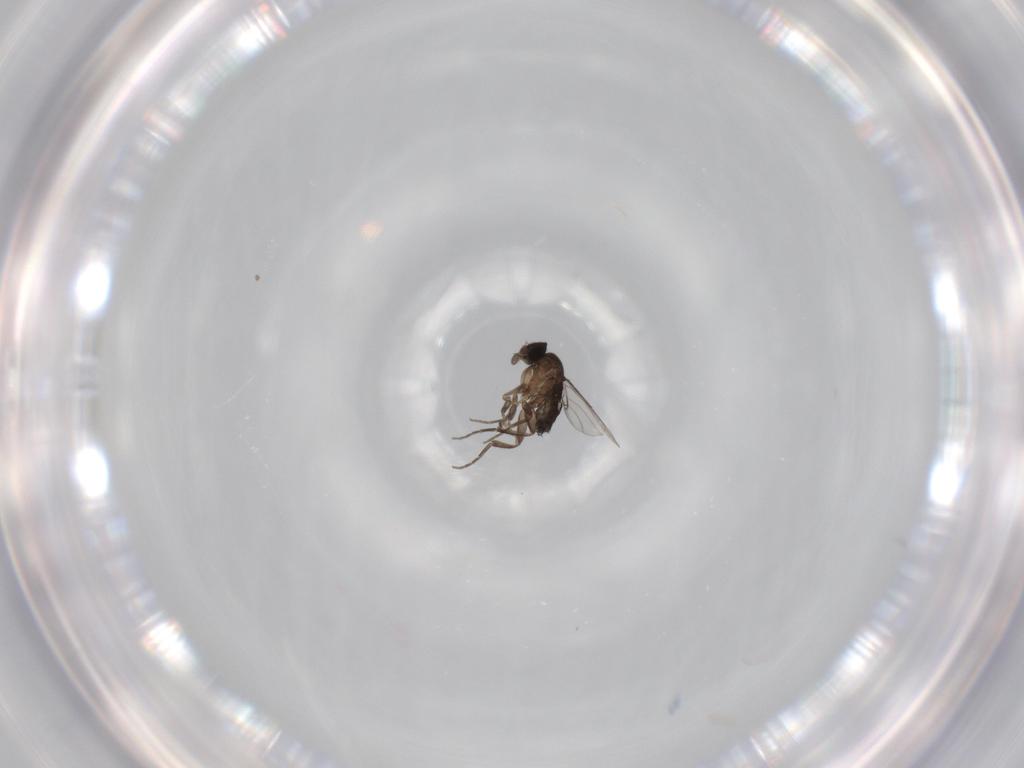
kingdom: Animalia
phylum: Arthropoda
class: Insecta
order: Diptera
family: Phoridae
